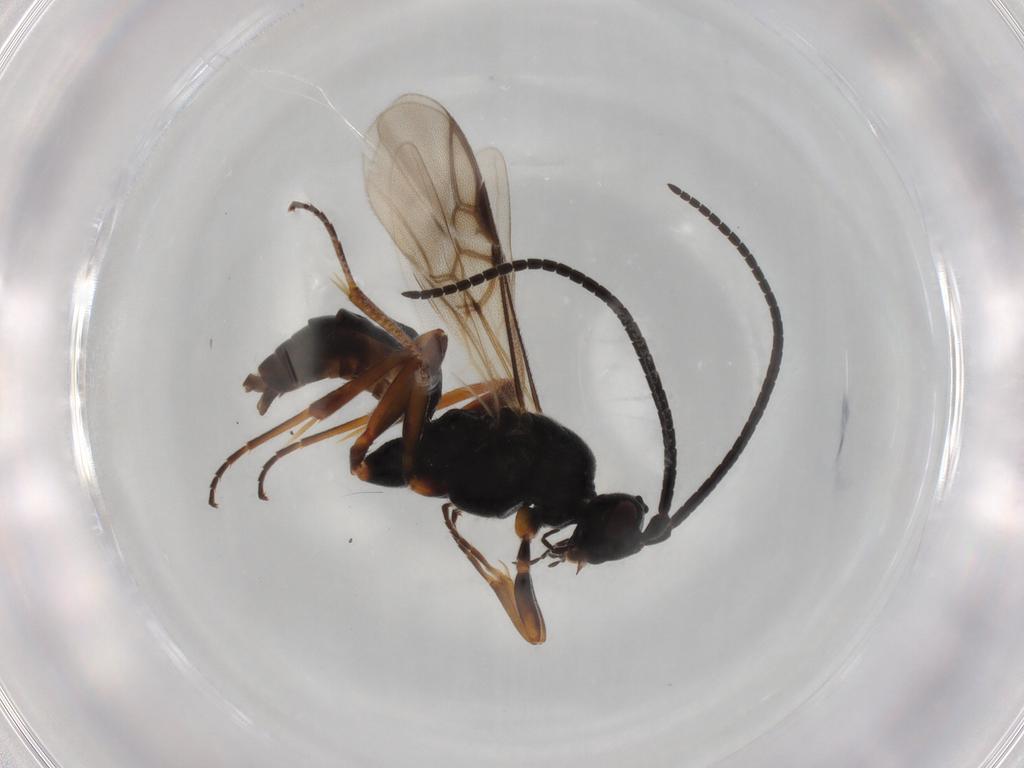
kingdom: Animalia
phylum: Arthropoda
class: Insecta
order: Hymenoptera
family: Braconidae
